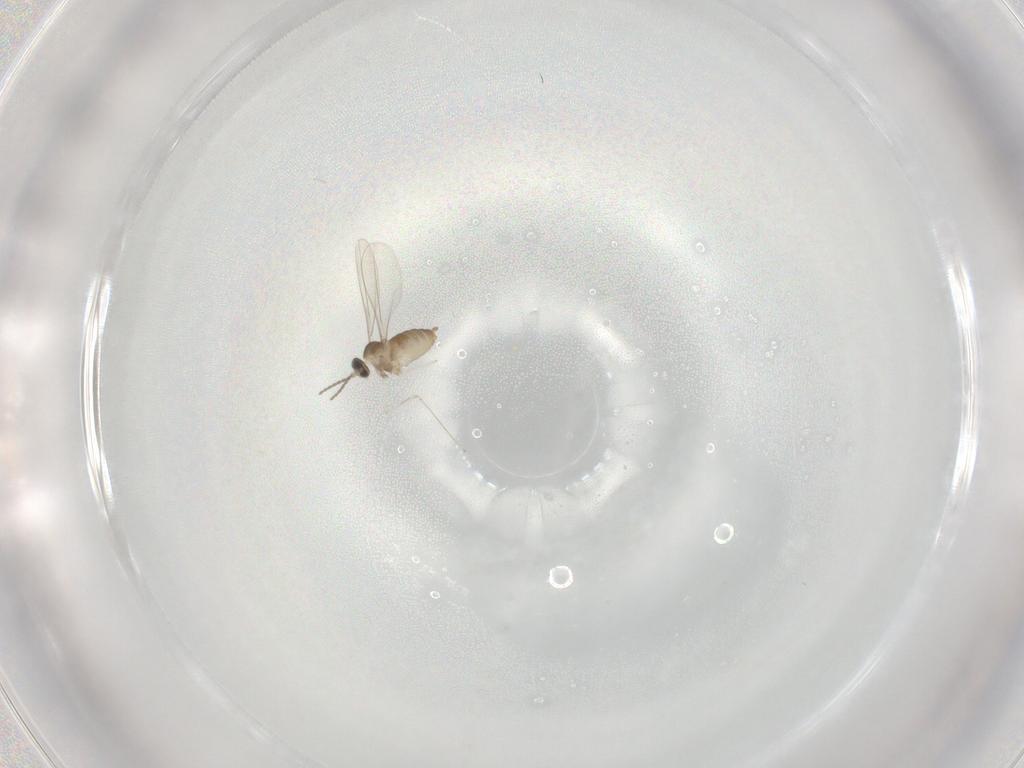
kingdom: Animalia
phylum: Arthropoda
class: Insecta
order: Diptera
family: Cecidomyiidae
